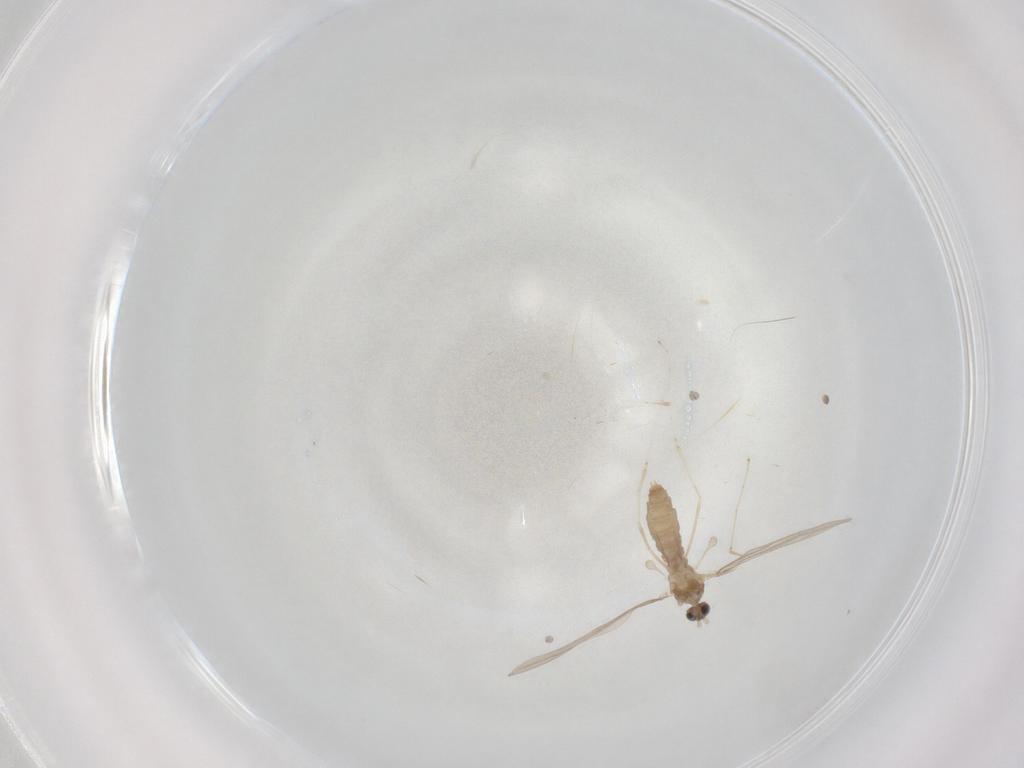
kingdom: Animalia
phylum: Arthropoda
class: Insecta
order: Diptera
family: Cecidomyiidae
